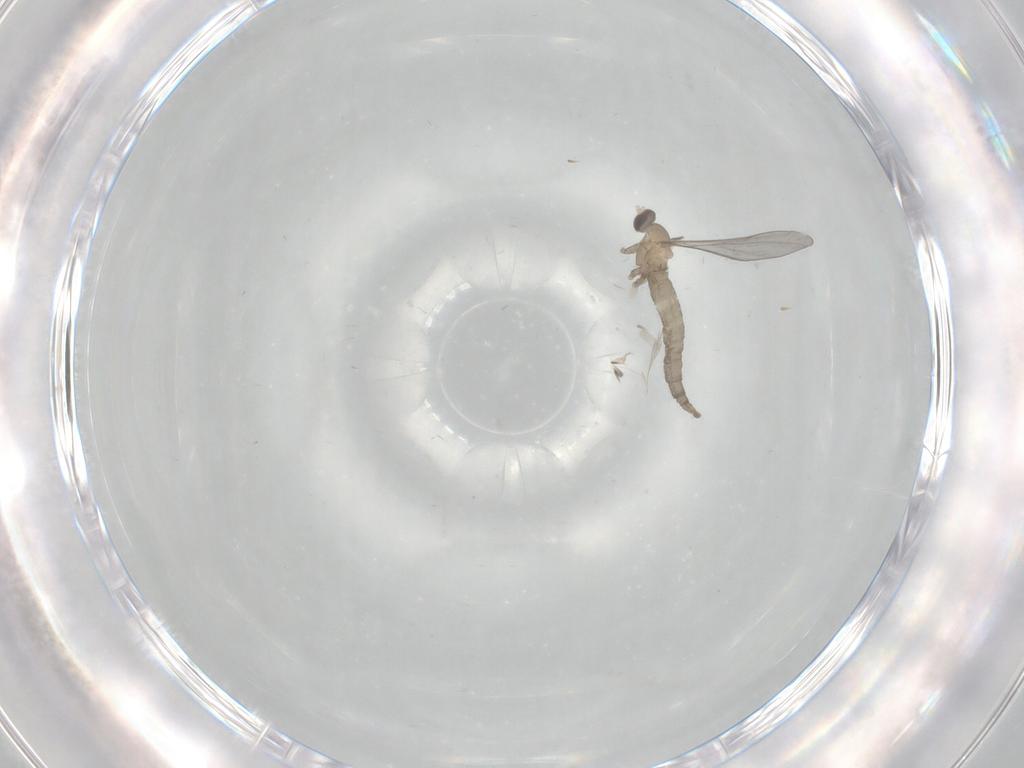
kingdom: Animalia
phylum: Arthropoda
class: Insecta
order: Diptera
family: Cecidomyiidae
